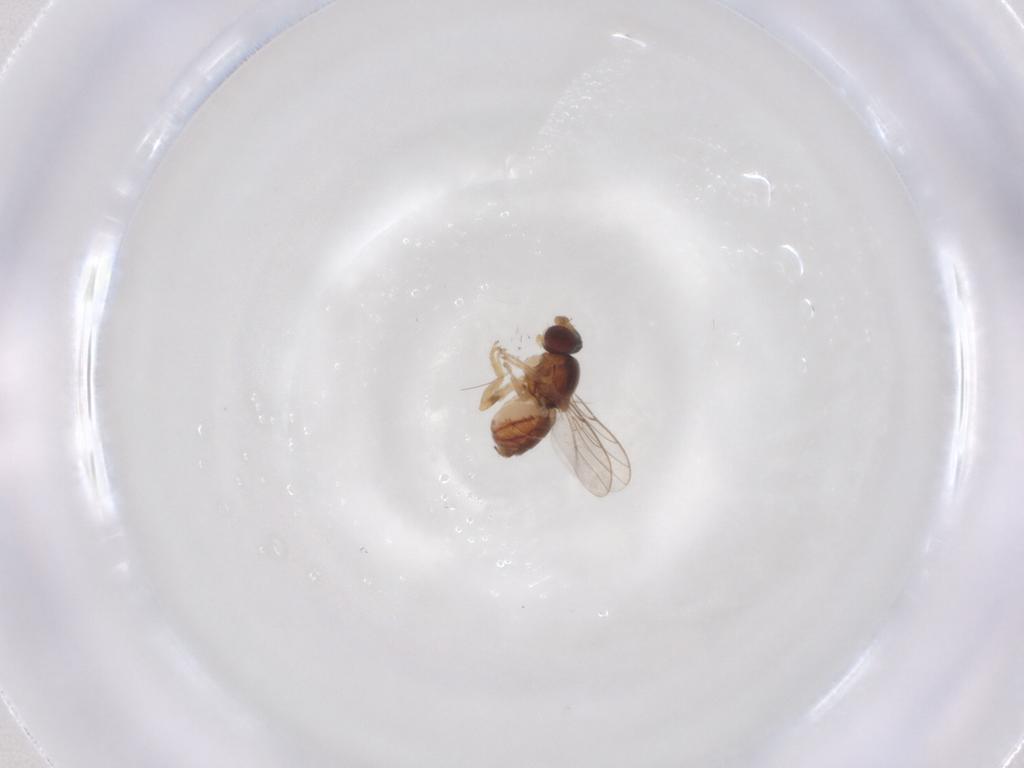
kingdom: Animalia
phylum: Arthropoda
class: Insecta
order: Diptera
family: Chloropidae
